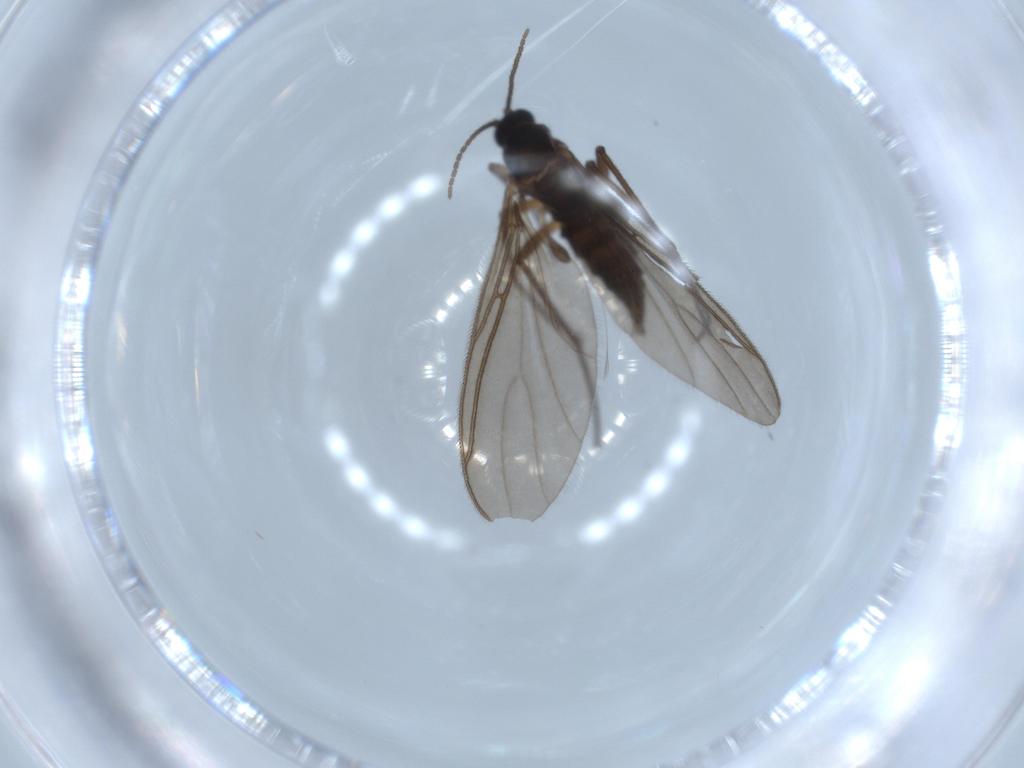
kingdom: Animalia
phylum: Arthropoda
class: Insecta
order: Diptera
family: Sciaridae
